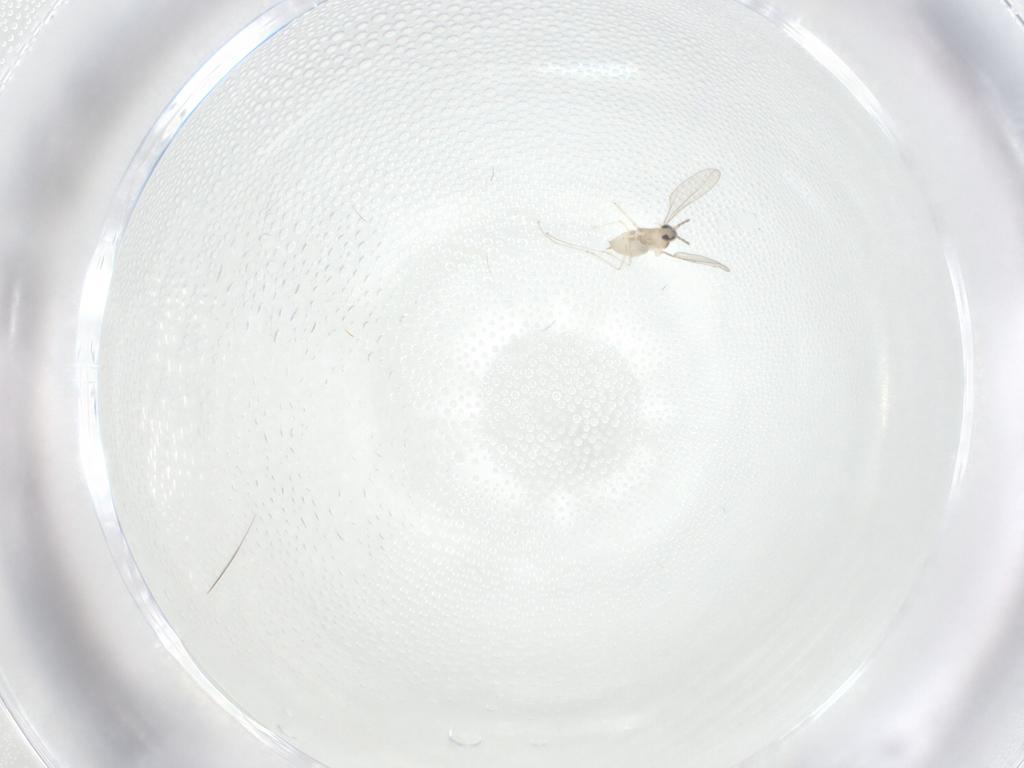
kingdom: Animalia
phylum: Arthropoda
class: Insecta
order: Diptera
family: Cecidomyiidae
